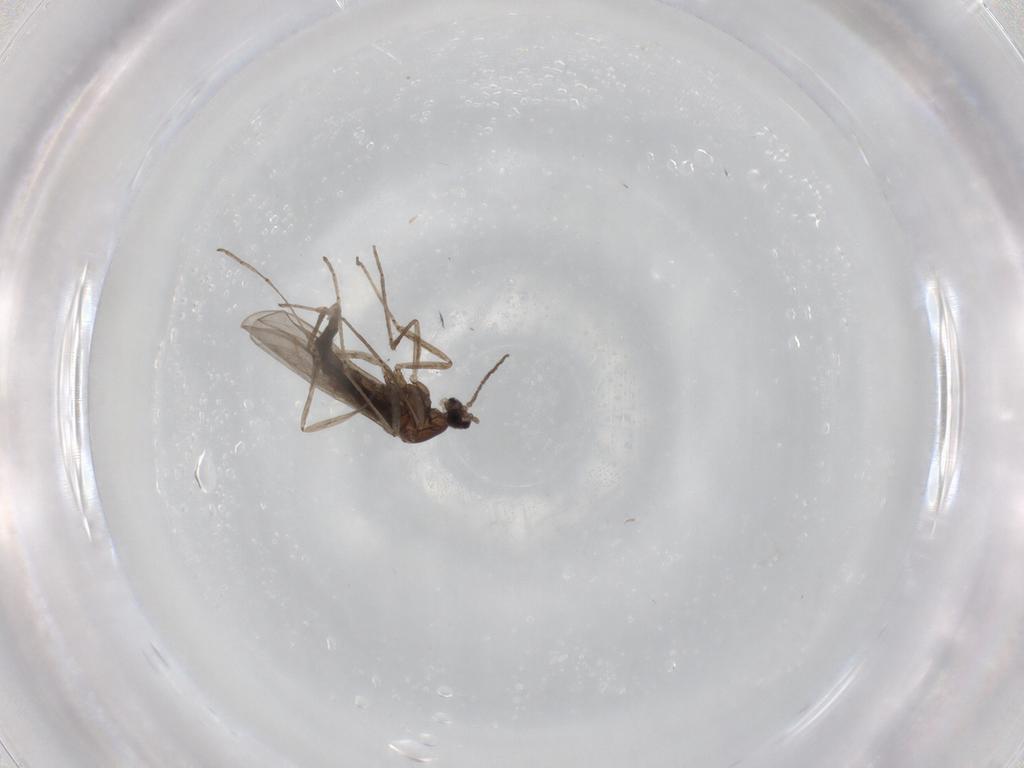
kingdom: Animalia
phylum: Arthropoda
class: Insecta
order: Diptera
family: Cecidomyiidae
